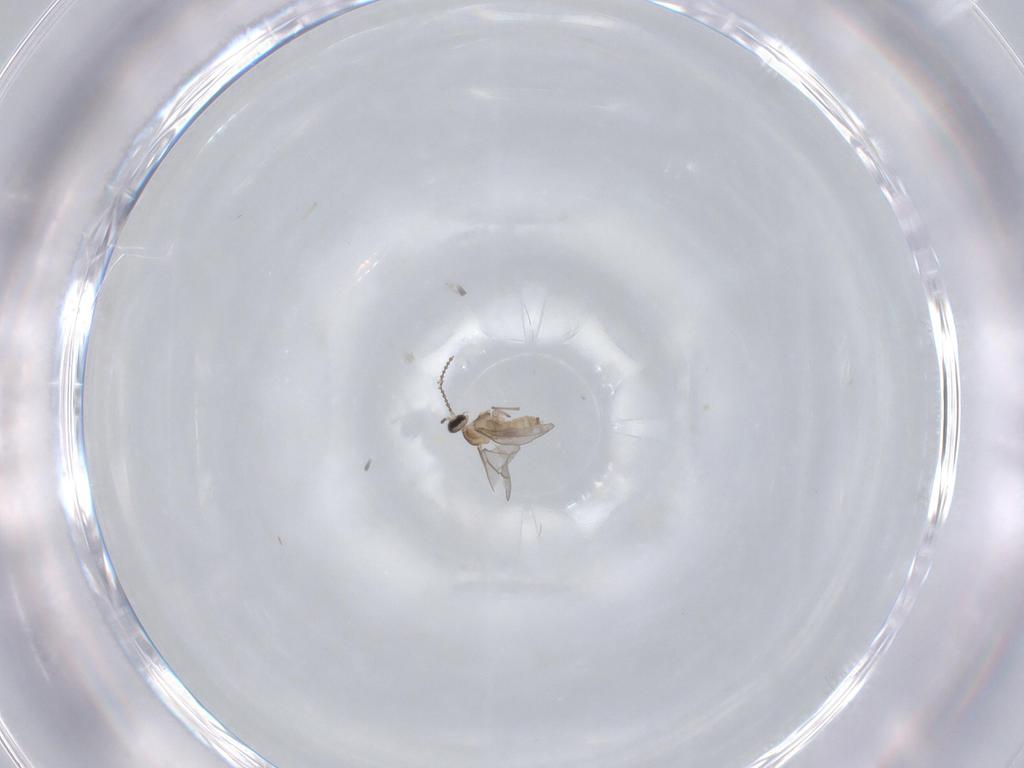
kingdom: Animalia
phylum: Arthropoda
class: Insecta
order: Diptera
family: Cecidomyiidae
